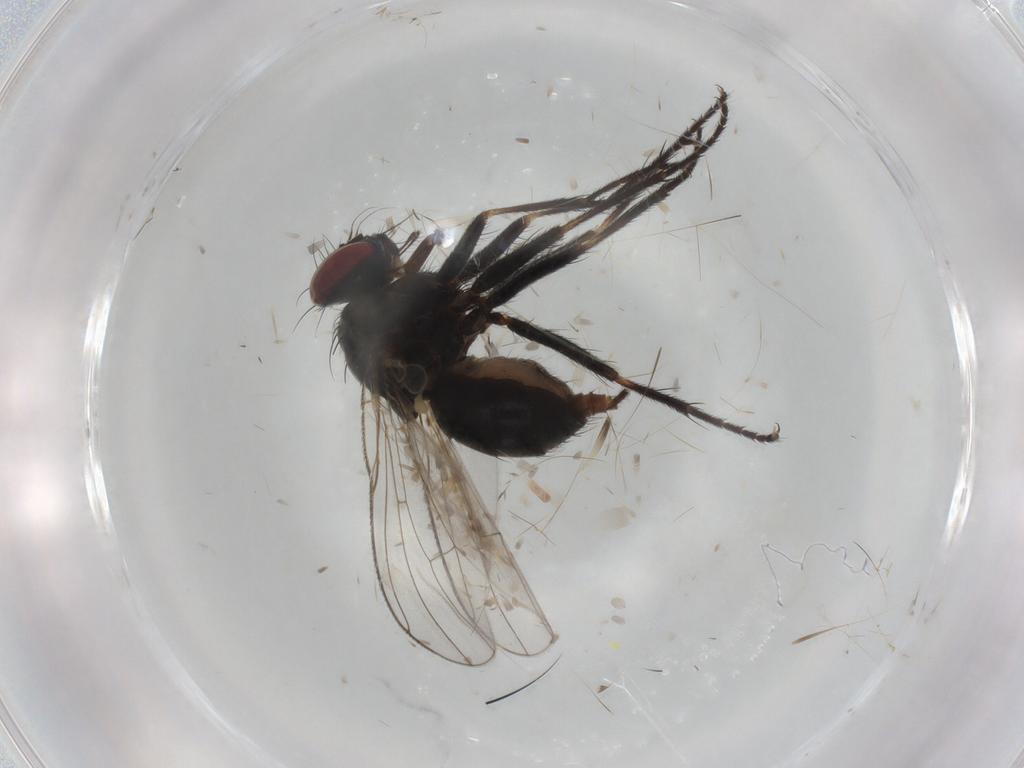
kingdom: Animalia
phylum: Arthropoda
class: Insecta
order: Diptera
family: Muscidae
